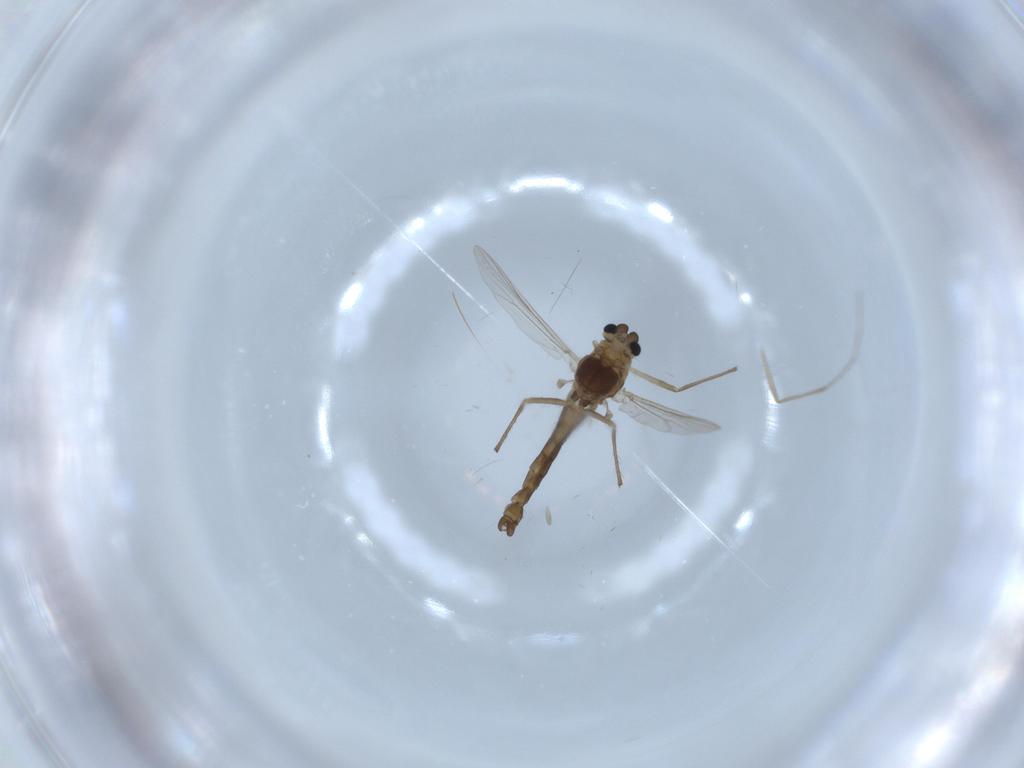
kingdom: Animalia
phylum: Arthropoda
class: Insecta
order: Diptera
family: Chironomidae
